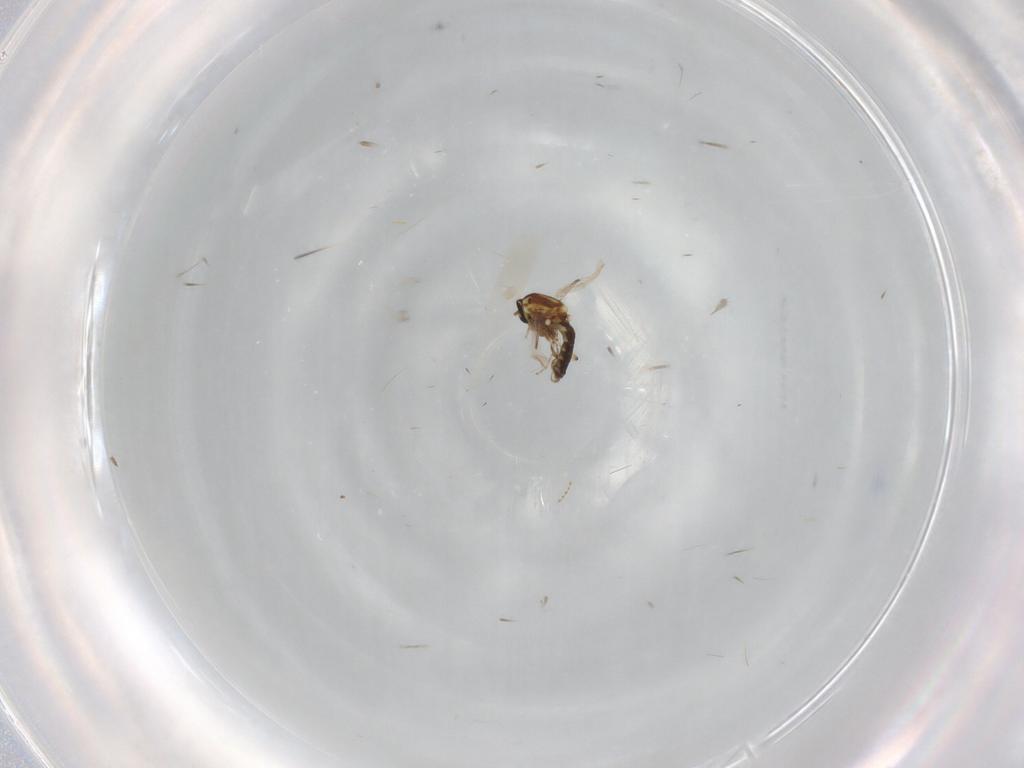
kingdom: Animalia
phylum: Arthropoda
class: Insecta
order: Diptera
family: Ceratopogonidae
